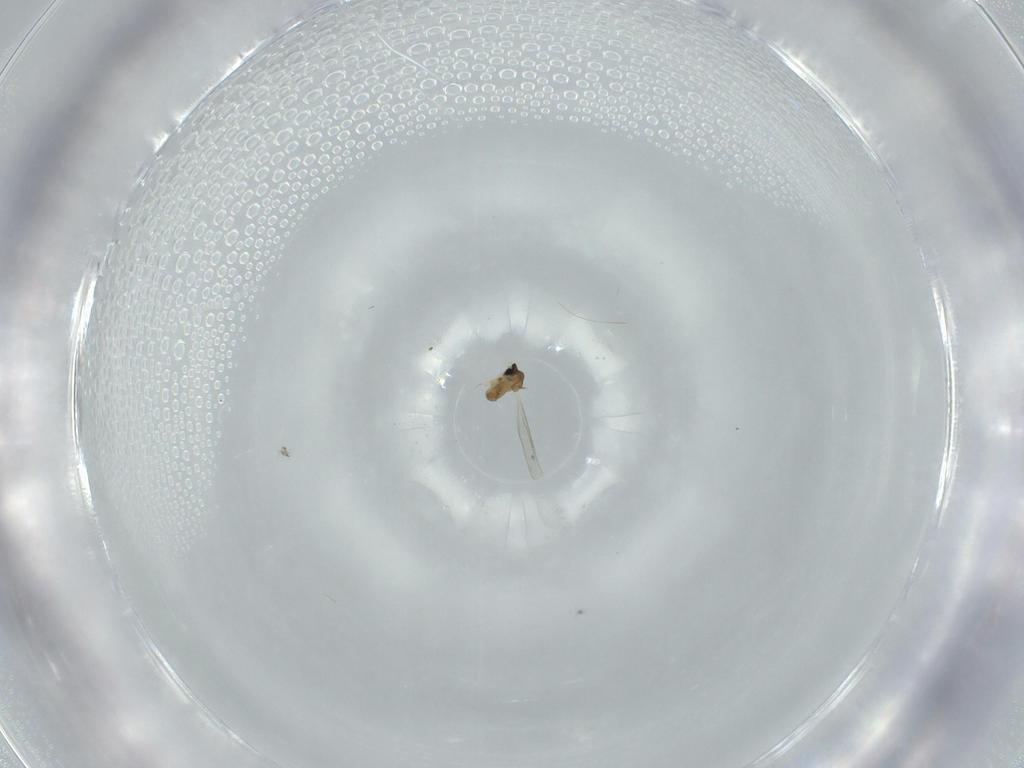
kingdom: Animalia
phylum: Arthropoda
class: Insecta
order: Diptera
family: Cecidomyiidae
